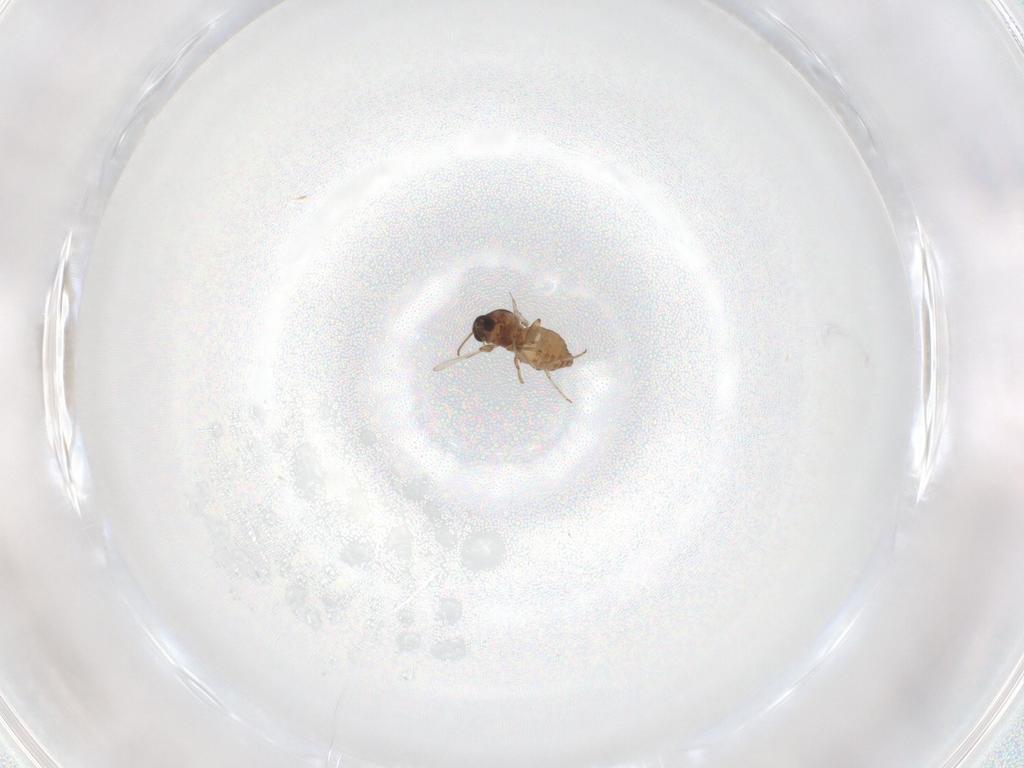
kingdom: Animalia
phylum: Arthropoda
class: Insecta
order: Diptera
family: Ceratopogonidae
